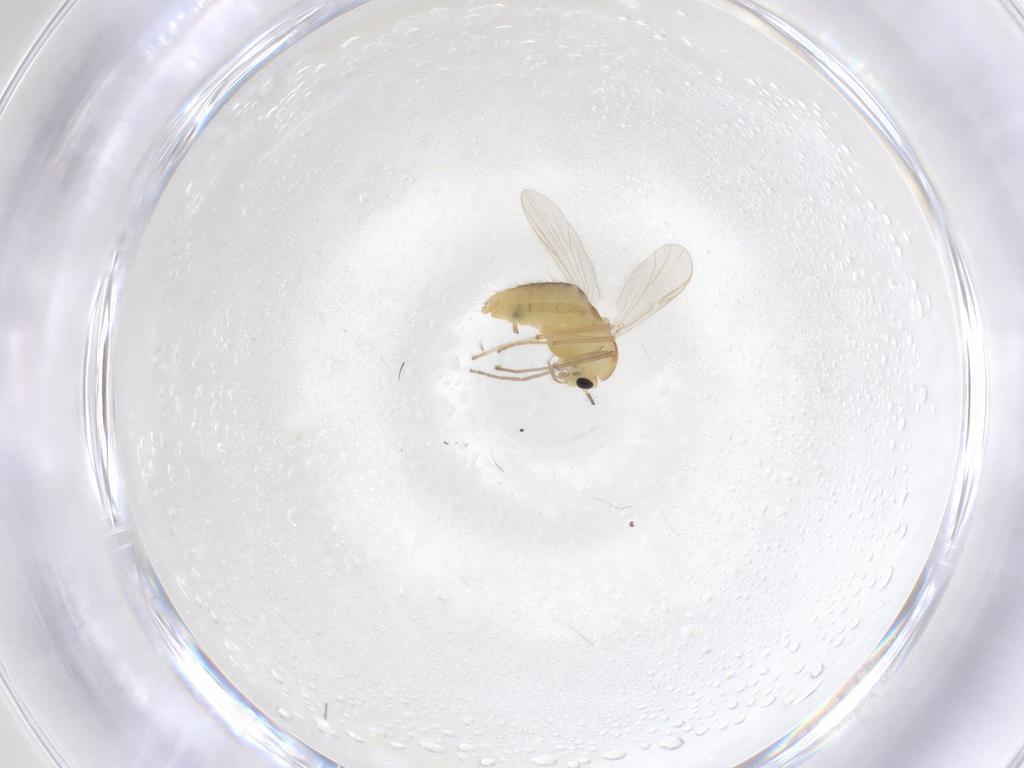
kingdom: Animalia
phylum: Arthropoda
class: Insecta
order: Diptera
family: Chironomidae
